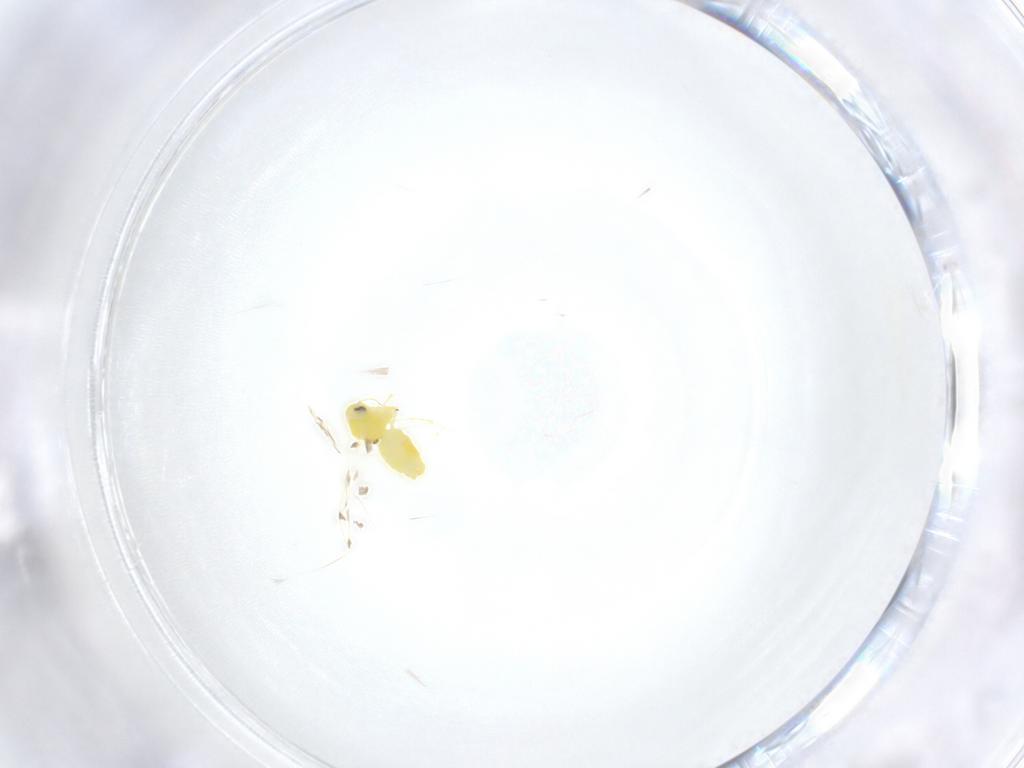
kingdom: Animalia
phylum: Arthropoda
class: Insecta
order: Hemiptera
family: Aleyrodidae
